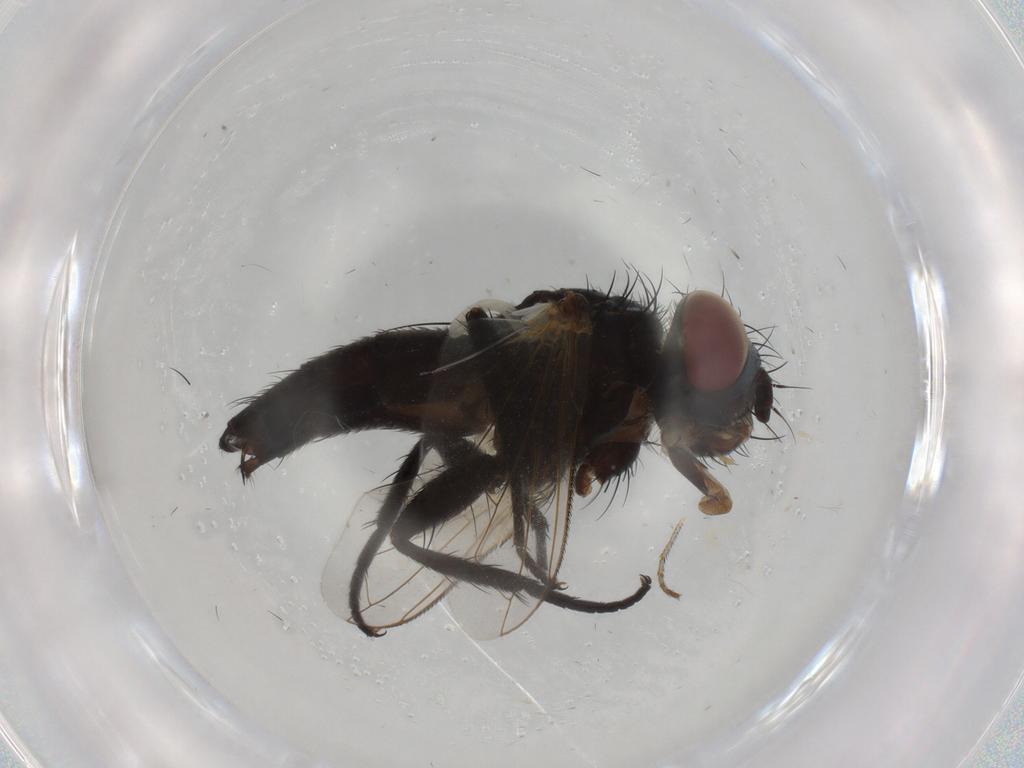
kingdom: Animalia
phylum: Arthropoda
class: Insecta
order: Diptera
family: Tachinidae
